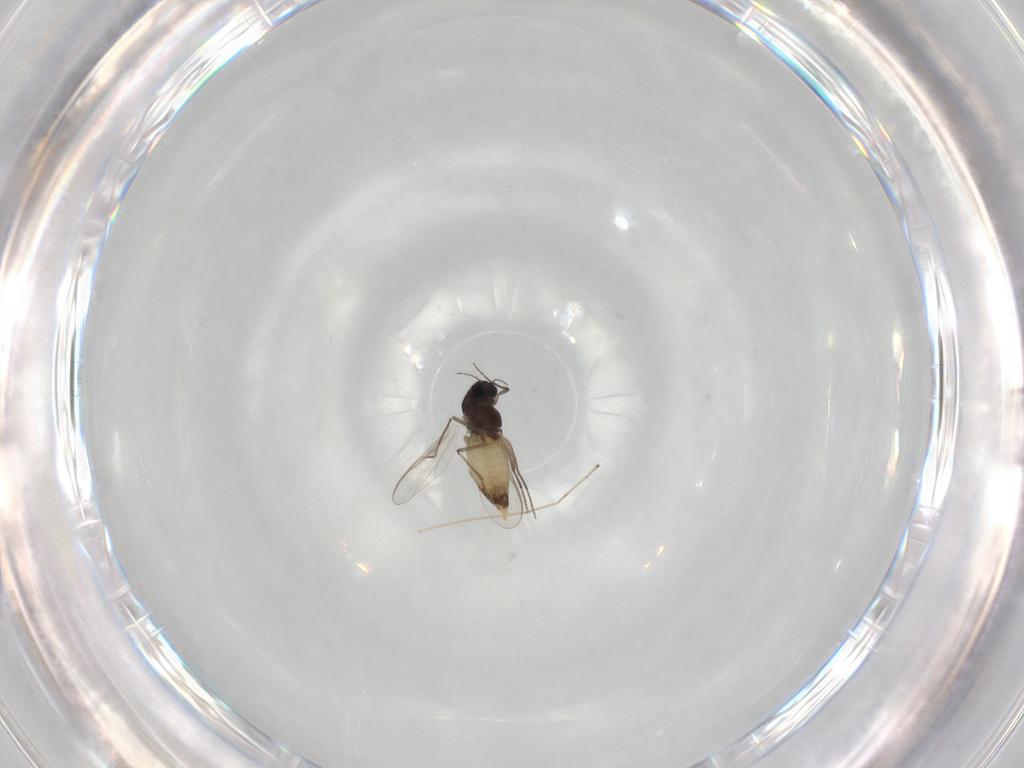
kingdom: Animalia
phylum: Arthropoda
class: Insecta
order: Diptera
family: Chironomidae
